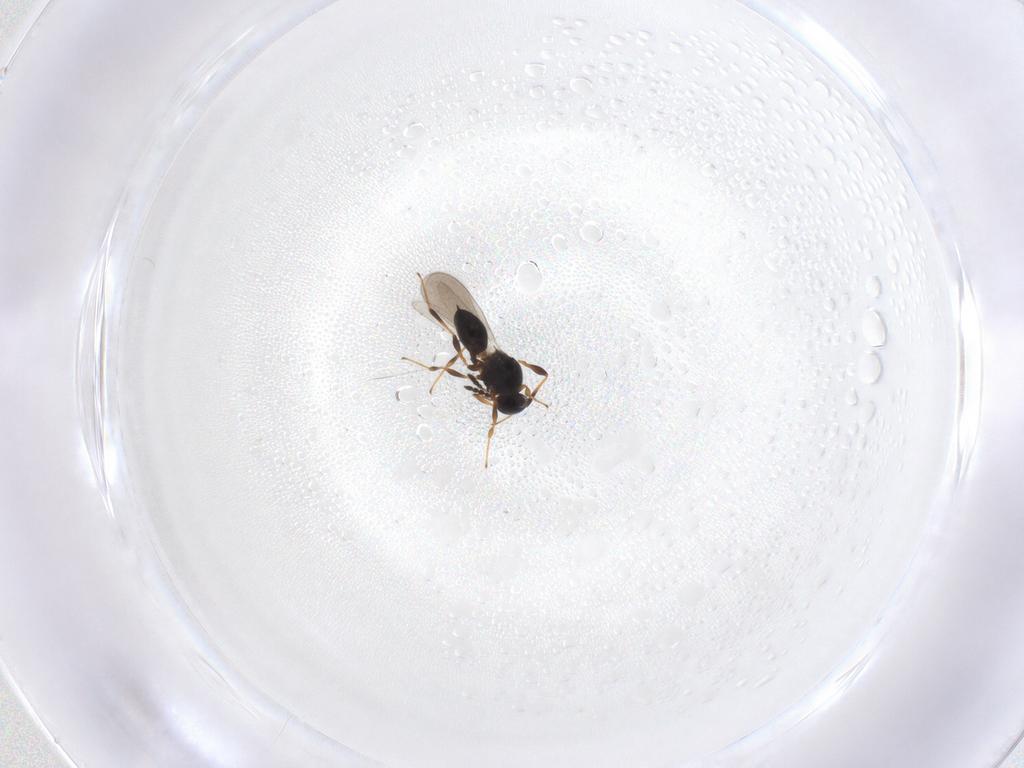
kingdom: Animalia
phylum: Arthropoda
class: Insecta
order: Hymenoptera
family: Platygastridae
